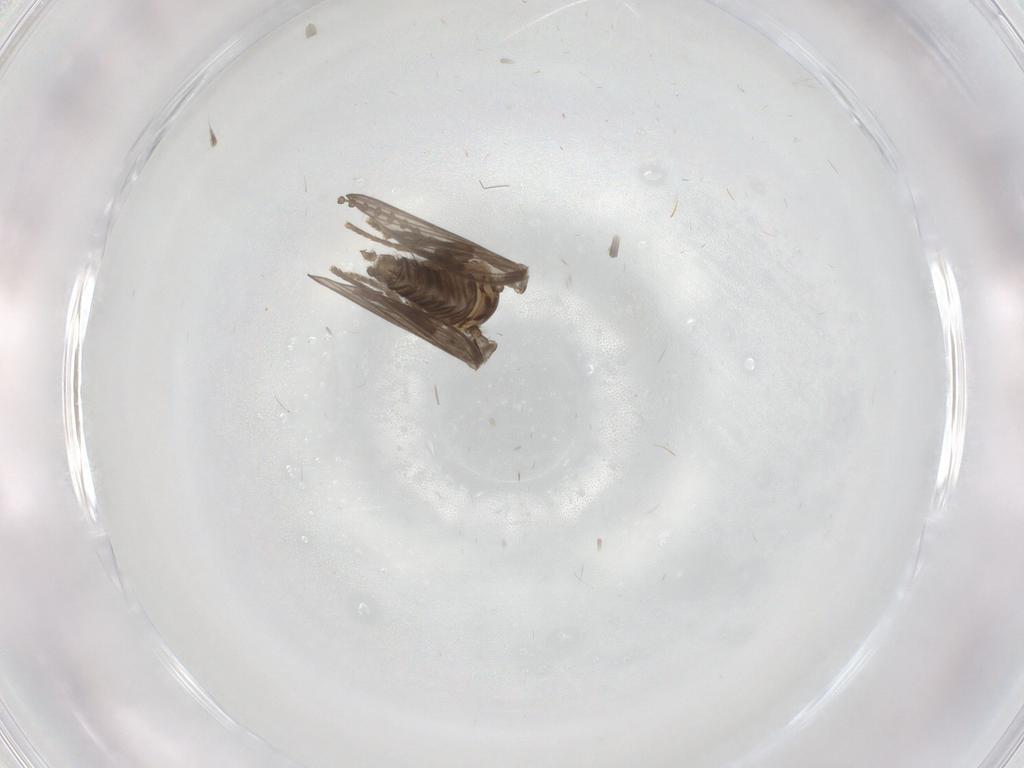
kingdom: Animalia
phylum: Arthropoda
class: Insecta
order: Diptera
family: Psychodidae
